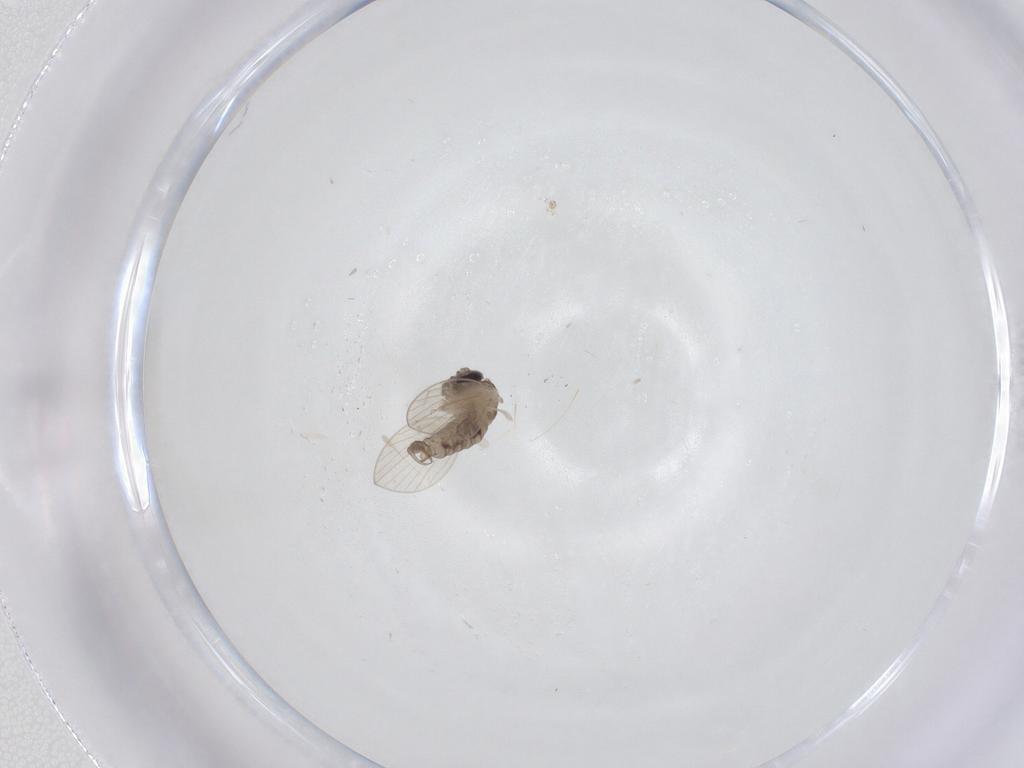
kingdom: Animalia
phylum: Arthropoda
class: Insecta
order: Diptera
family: Psychodidae
